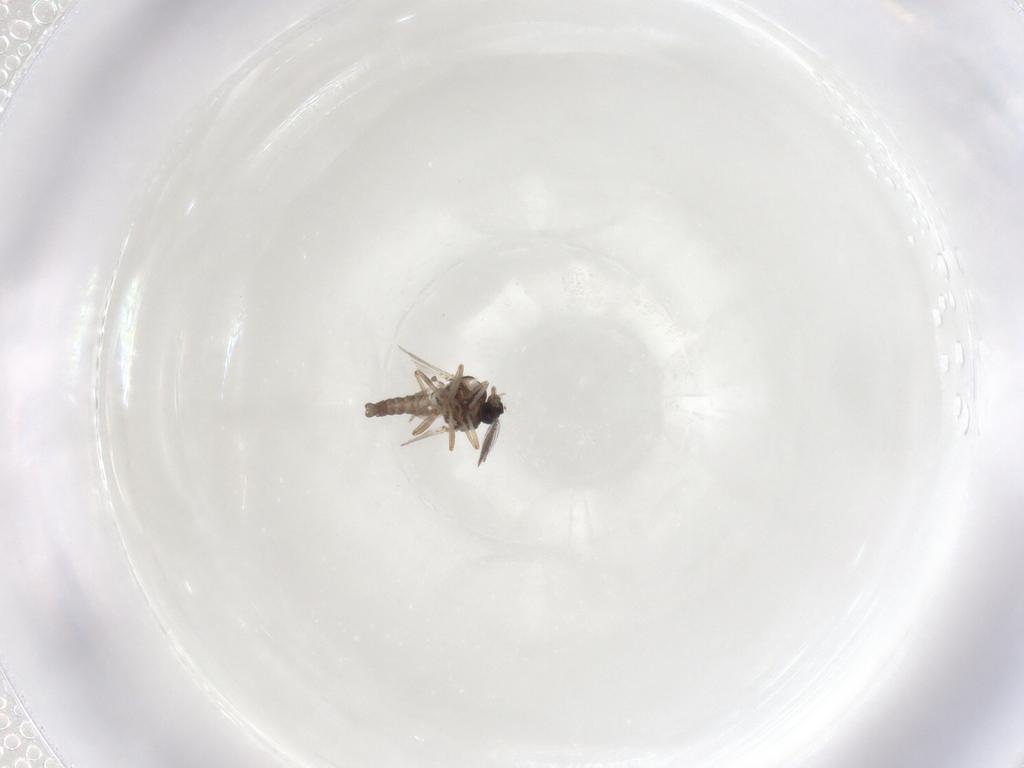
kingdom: Animalia
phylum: Arthropoda
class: Insecta
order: Diptera
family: Ceratopogonidae
